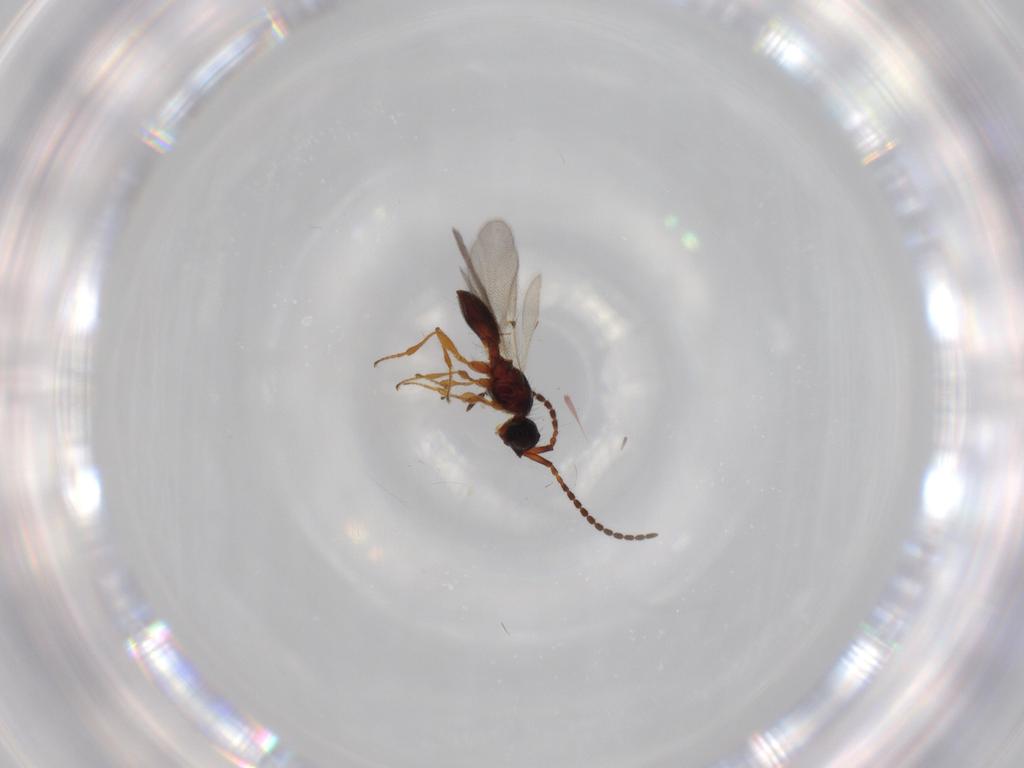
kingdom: Animalia
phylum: Arthropoda
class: Insecta
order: Hymenoptera
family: Diapriidae
